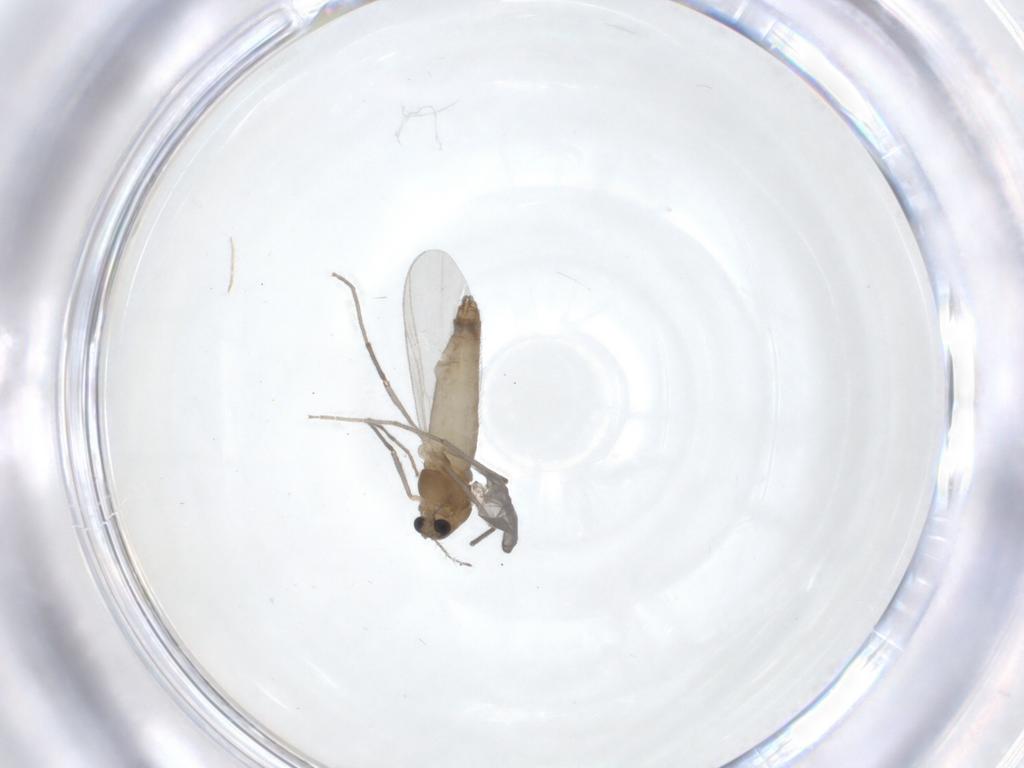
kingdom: Animalia
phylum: Arthropoda
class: Insecta
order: Diptera
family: Chironomidae
